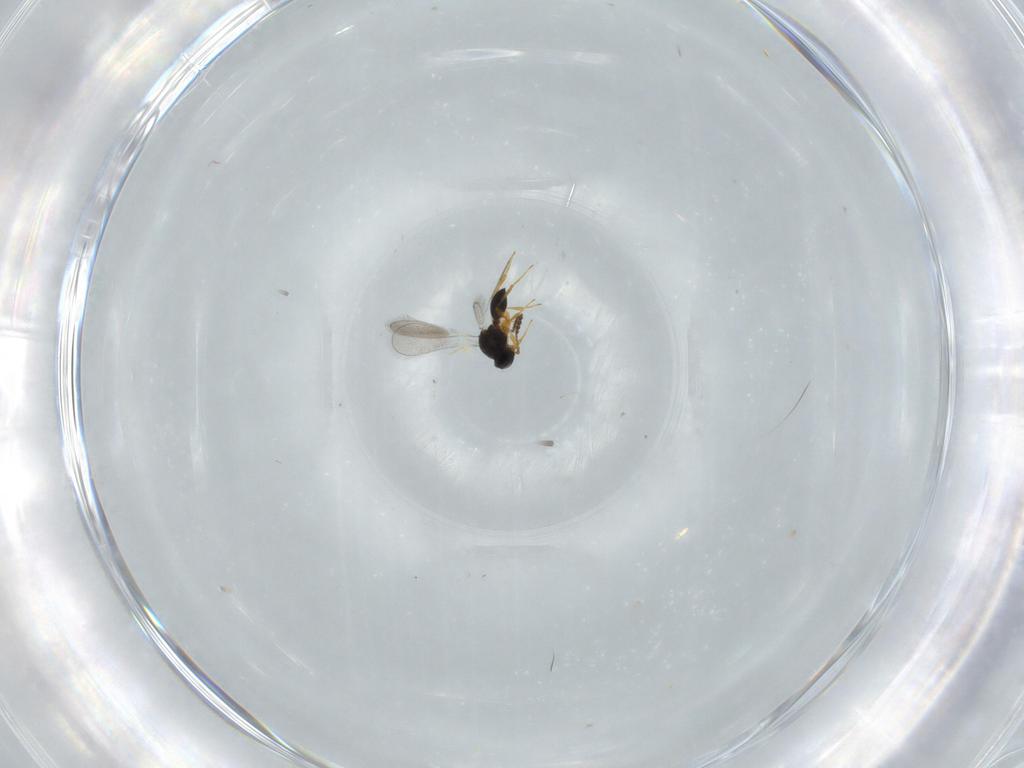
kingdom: Animalia
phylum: Arthropoda
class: Insecta
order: Hymenoptera
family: Platygastridae
